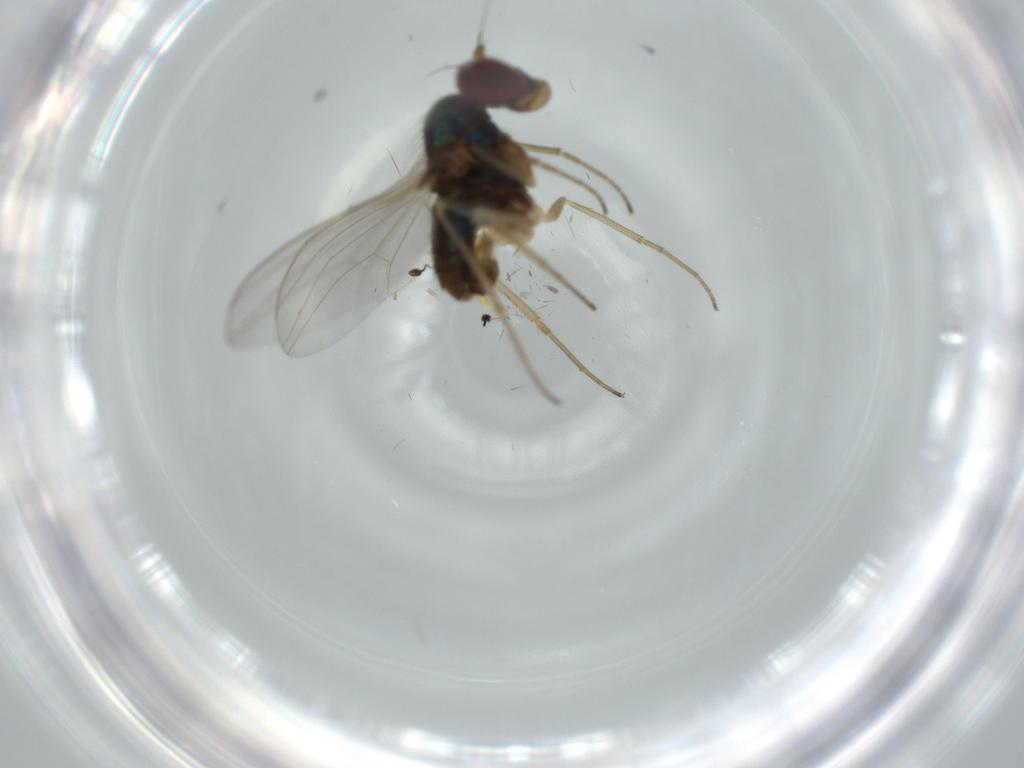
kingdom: Animalia
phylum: Arthropoda
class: Insecta
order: Diptera
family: Dolichopodidae
